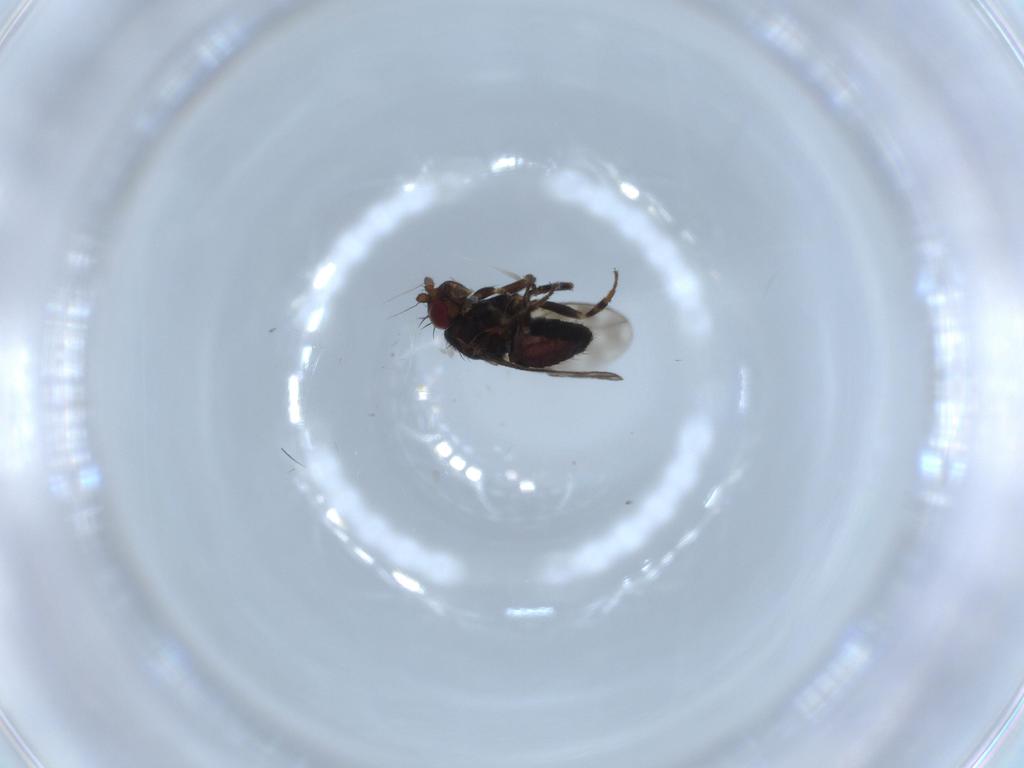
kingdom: Animalia
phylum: Arthropoda
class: Insecta
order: Diptera
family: Sphaeroceridae
